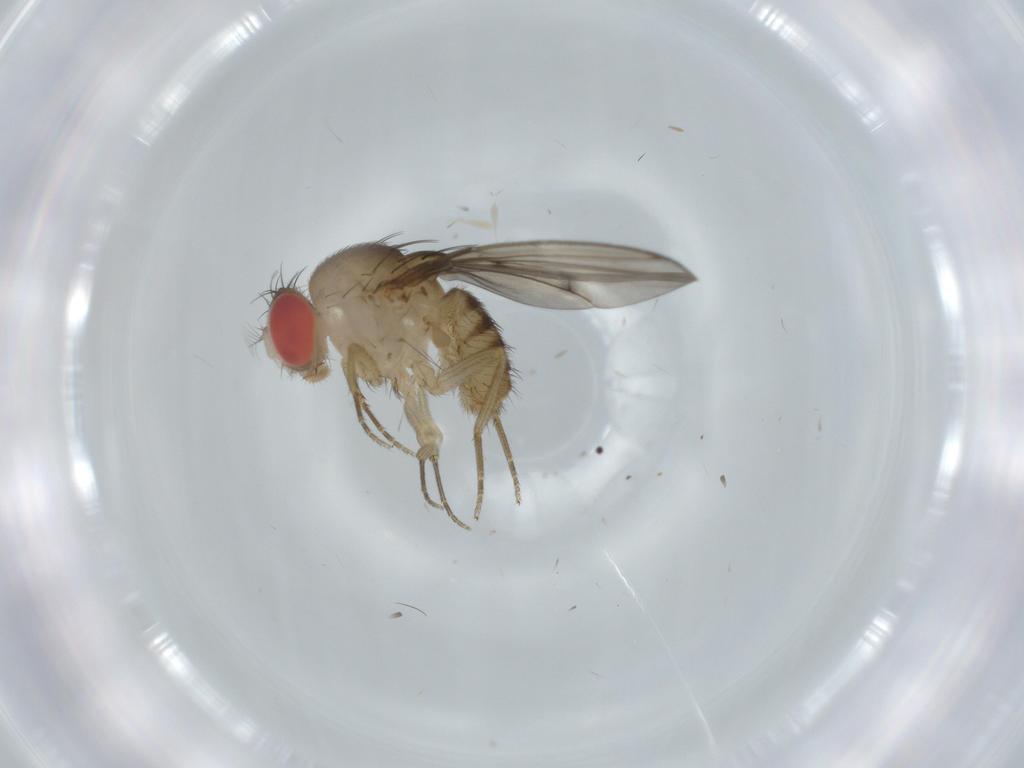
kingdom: Animalia
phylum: Arthropoda
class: Insecta
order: Diptera
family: Drosophilidae
